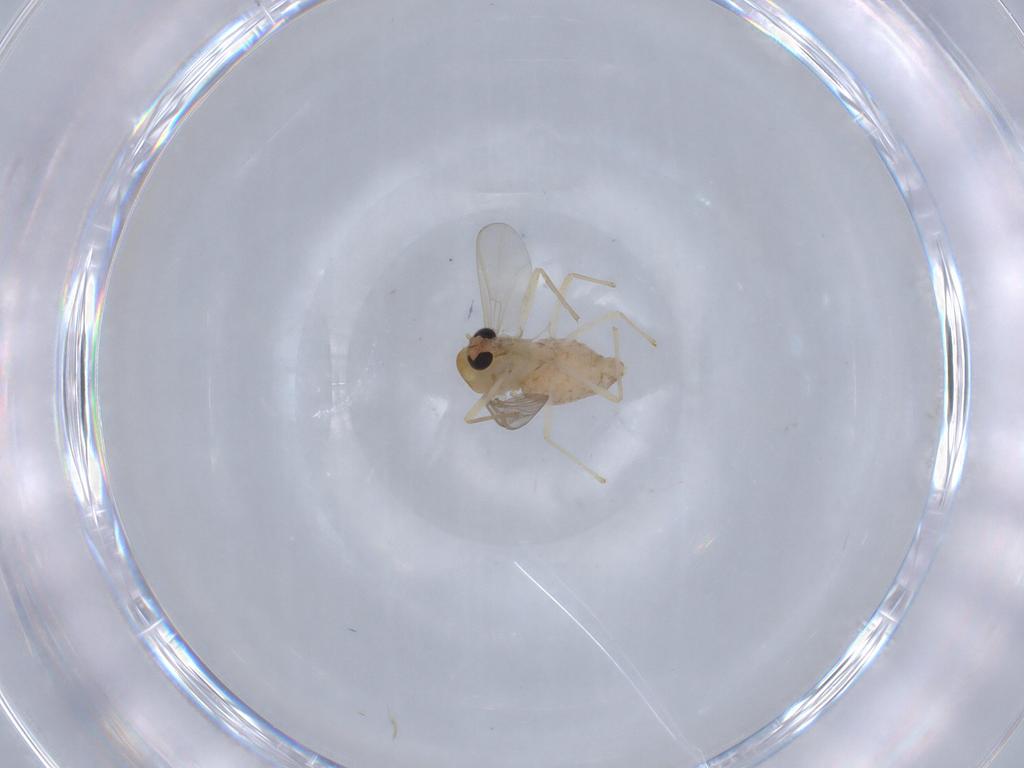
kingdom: Animalia
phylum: Arthropoda
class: Insecta
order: Diptera
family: Chironomidae
